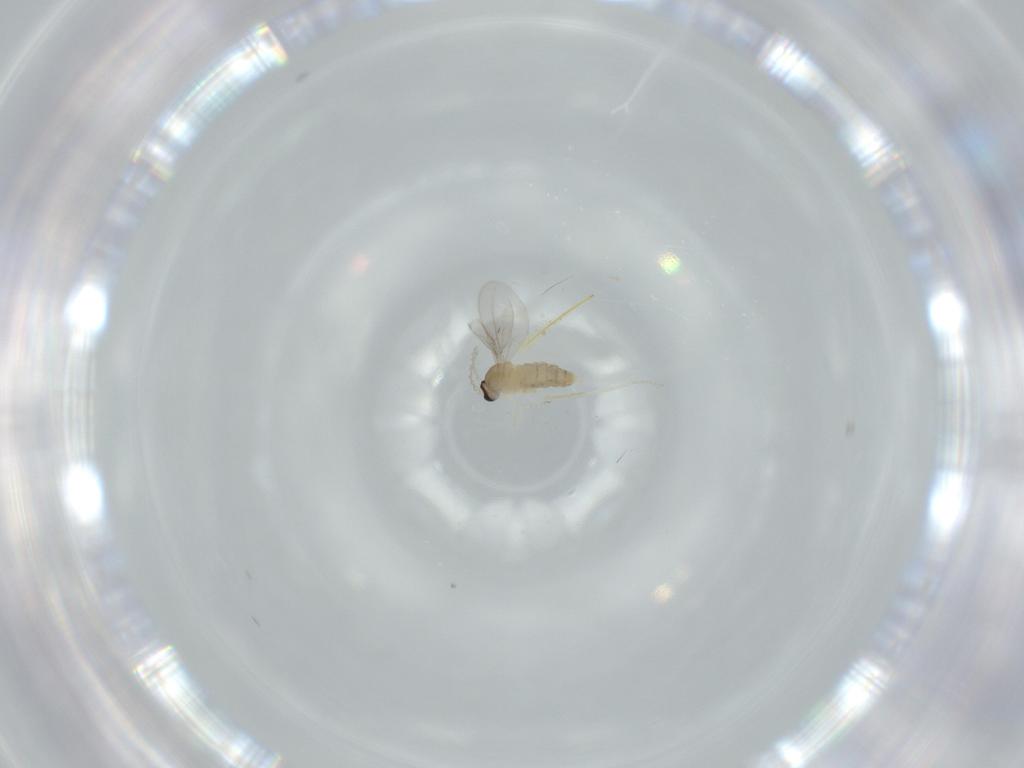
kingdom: Animalia
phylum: Arthropoda
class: Insecta
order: Diptera
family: Cecidomyiidae
